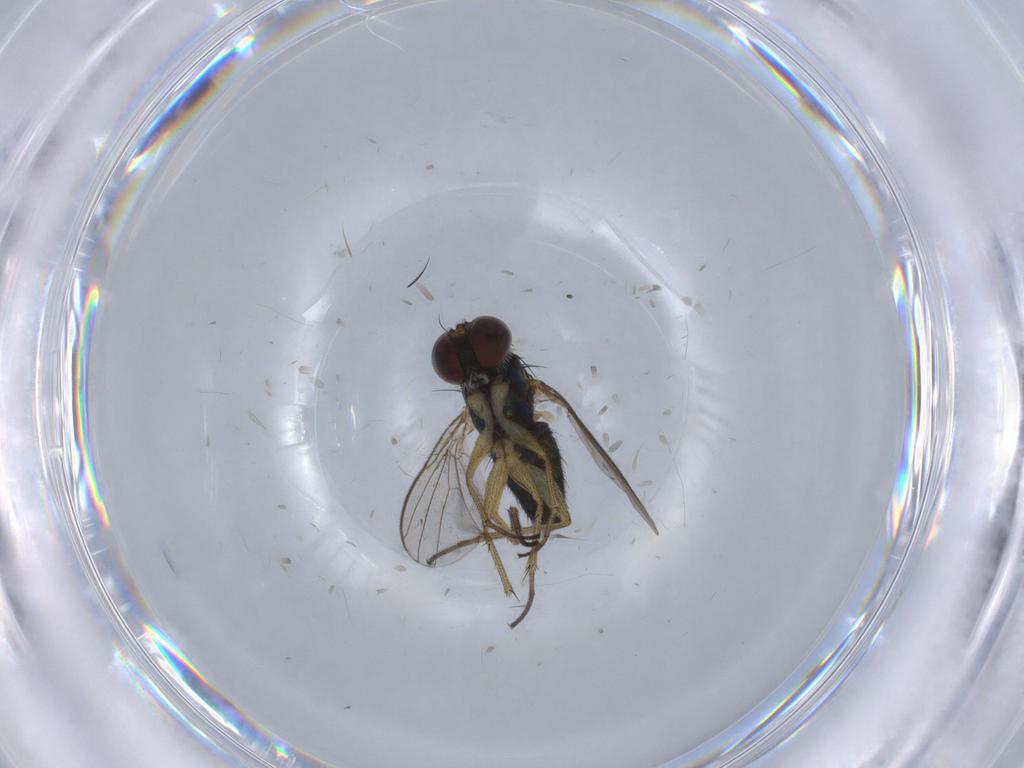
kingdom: Animalia
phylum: Arthropoda
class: Insecta
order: Diptera
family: Dolichopodidae
